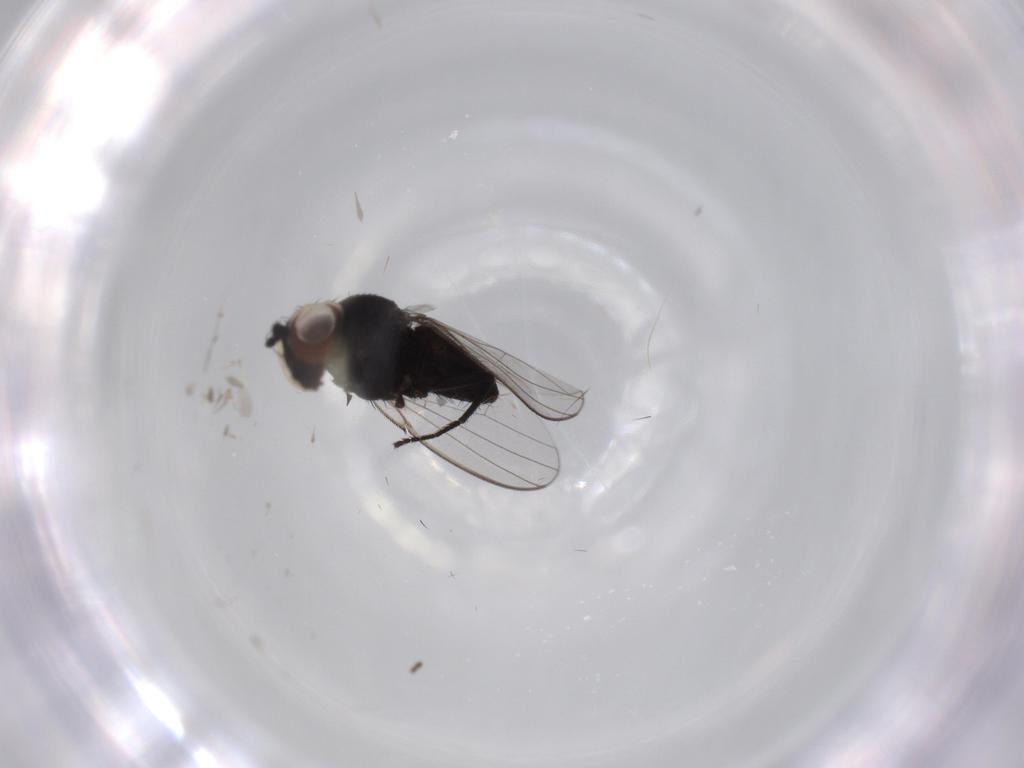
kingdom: Animalia
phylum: Arthropoda
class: Insecta
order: Diptera
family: Milichiidae
